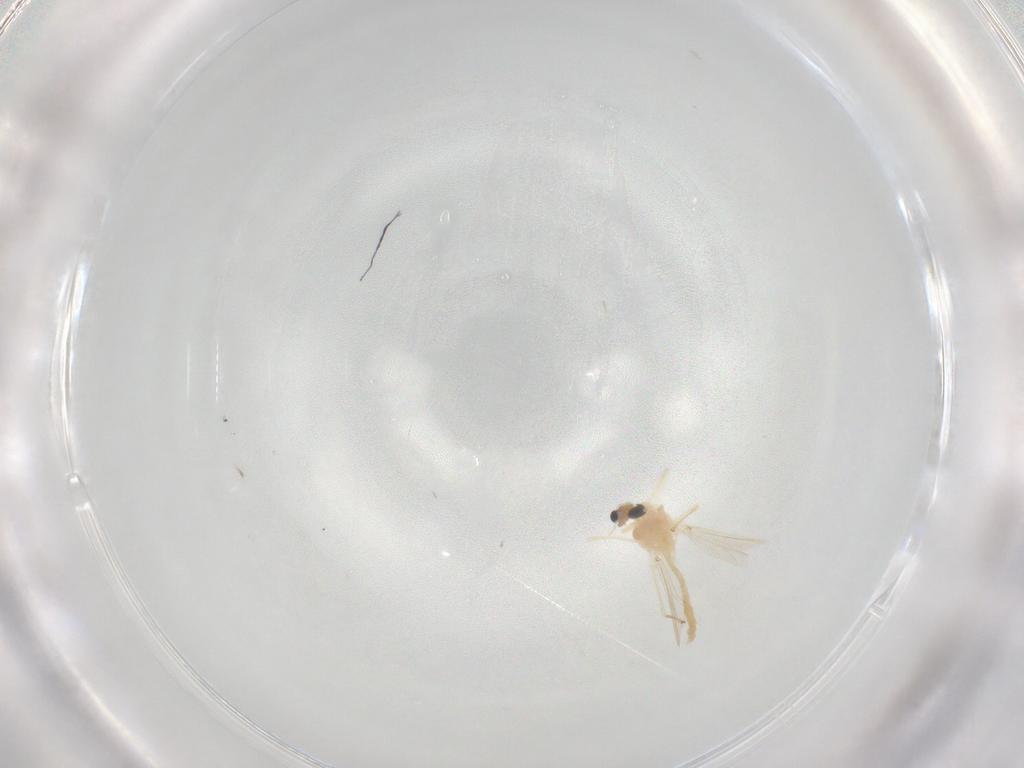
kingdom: Animalia
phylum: Arthropoda
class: Insecta
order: Diptera
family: Chironomidae
